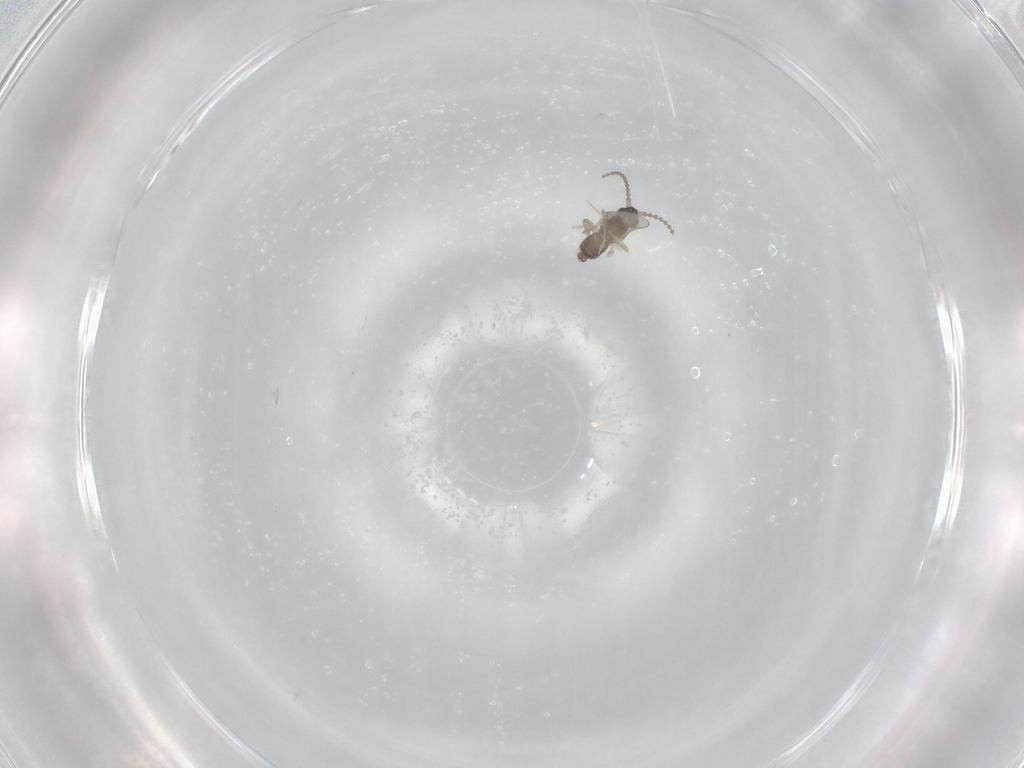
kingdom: Animalia
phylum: Arthropoda
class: Insecta
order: Diptera
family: Cecidomyiidae
